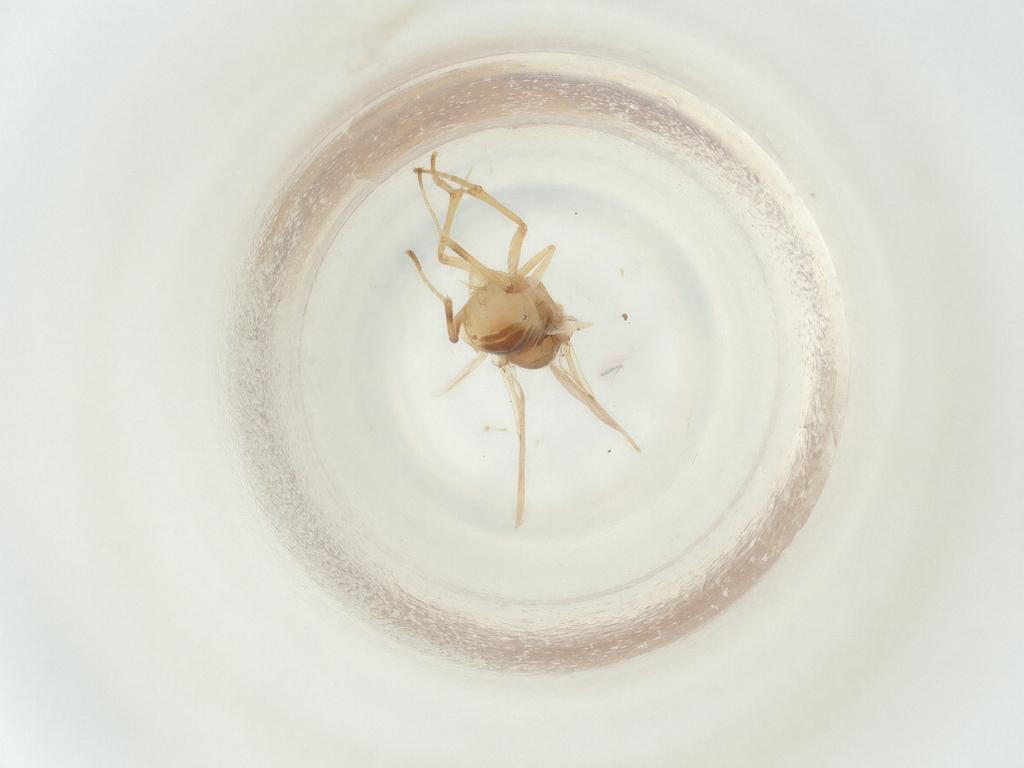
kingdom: Animalia
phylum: Arthropoda
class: Insecta
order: Diptera
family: Sciaridae
